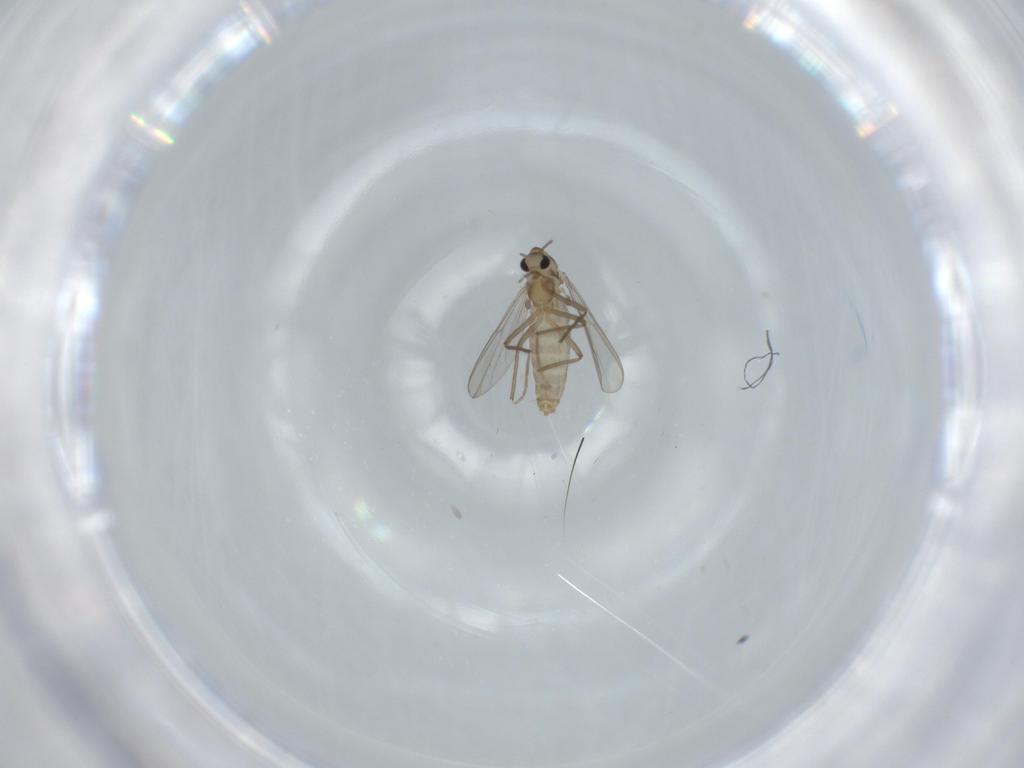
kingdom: Animalia
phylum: Arthropoda
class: Insecta
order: Diptera
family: Chironomidae
